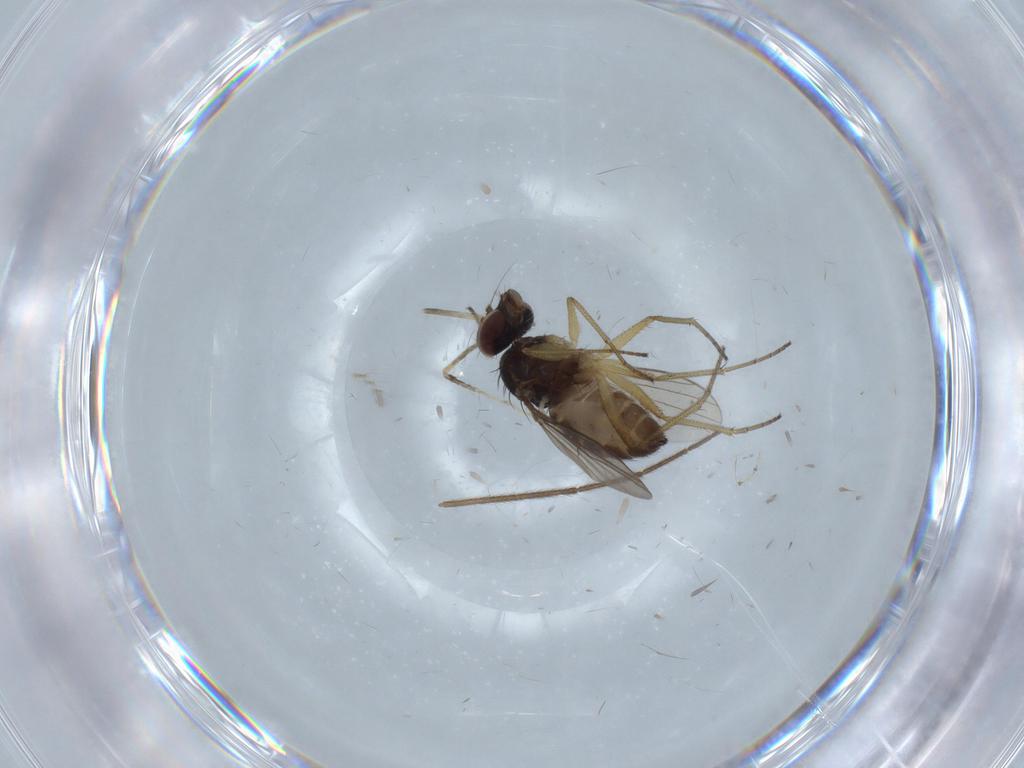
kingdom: Animalia
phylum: Arthropoda
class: Insecta
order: Diptera
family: Dolichopodidae
